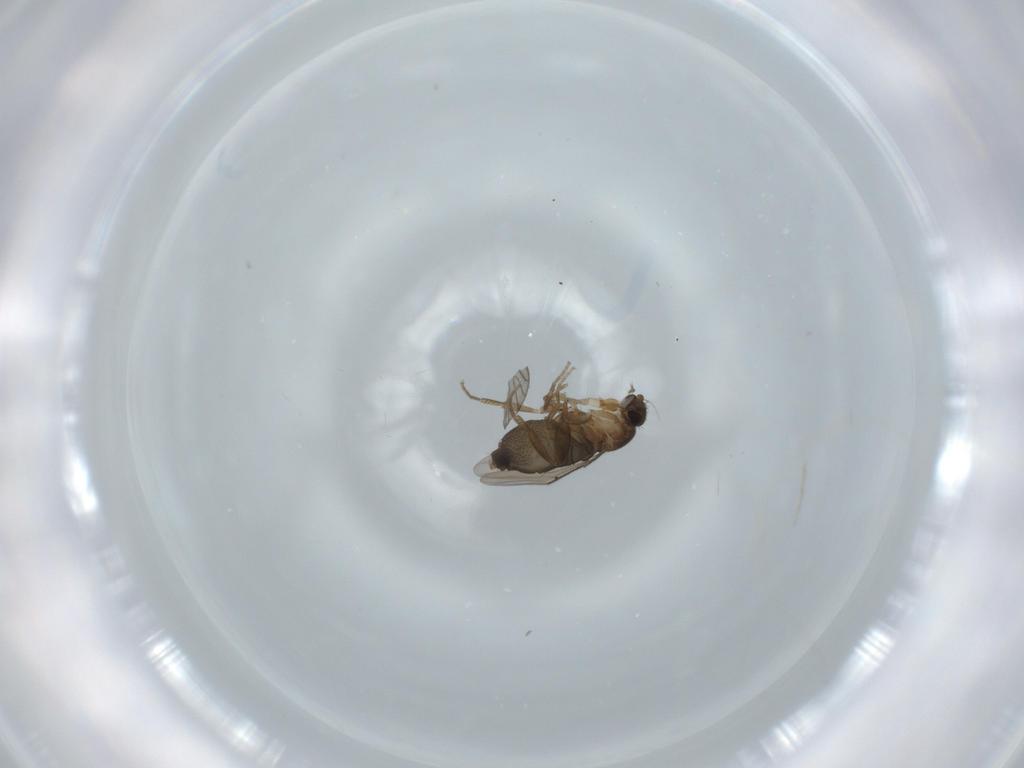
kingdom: Animalia
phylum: Arthropoda
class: Insecta
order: Diptera
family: Phoridae
